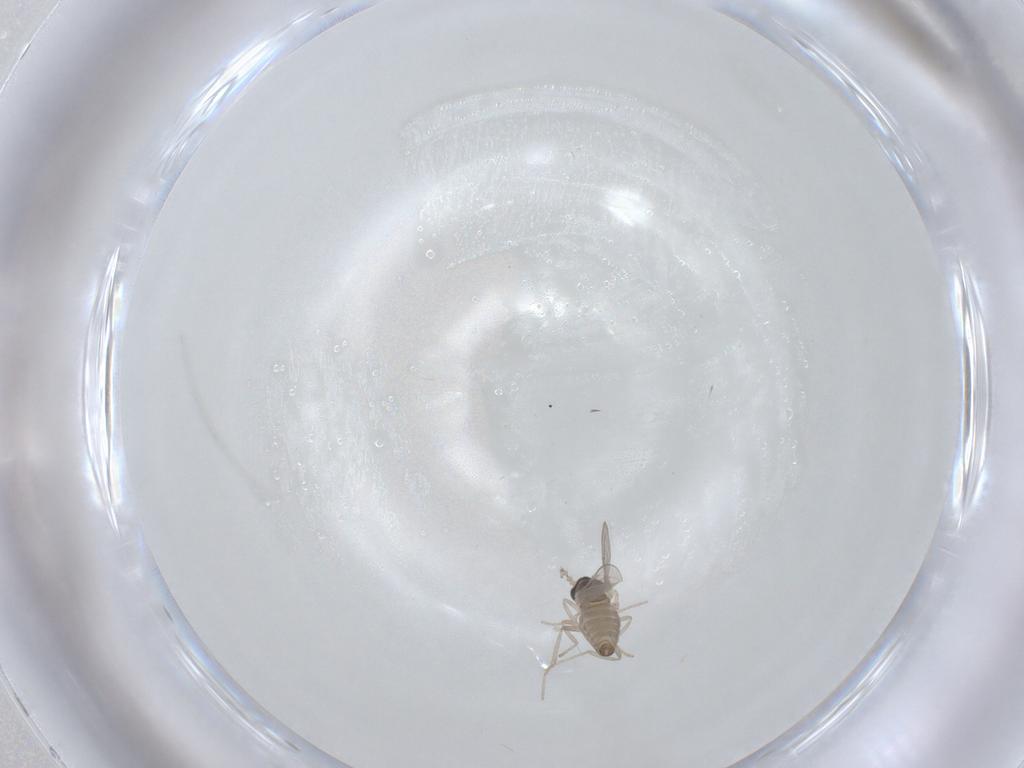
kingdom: Animalia
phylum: Arthropoda
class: Insecta
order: Diptera
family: Cecidomyiidae
